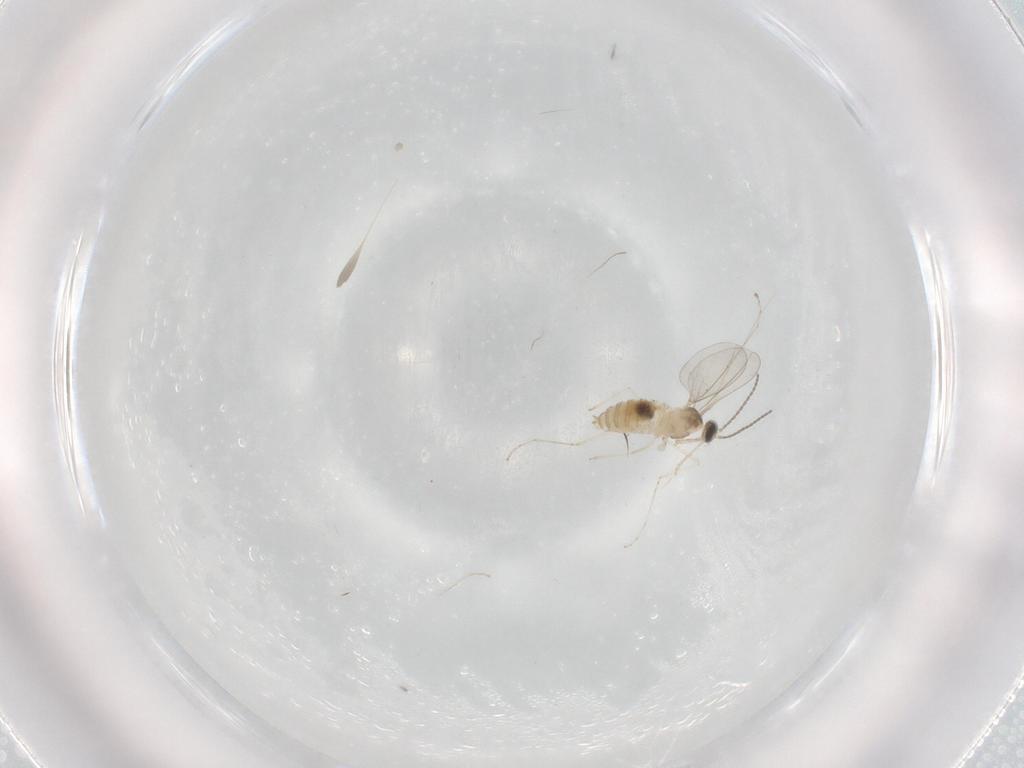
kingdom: Animalia
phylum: Arthropoda
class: Insecta
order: Diptera
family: Cecidomyiidae
